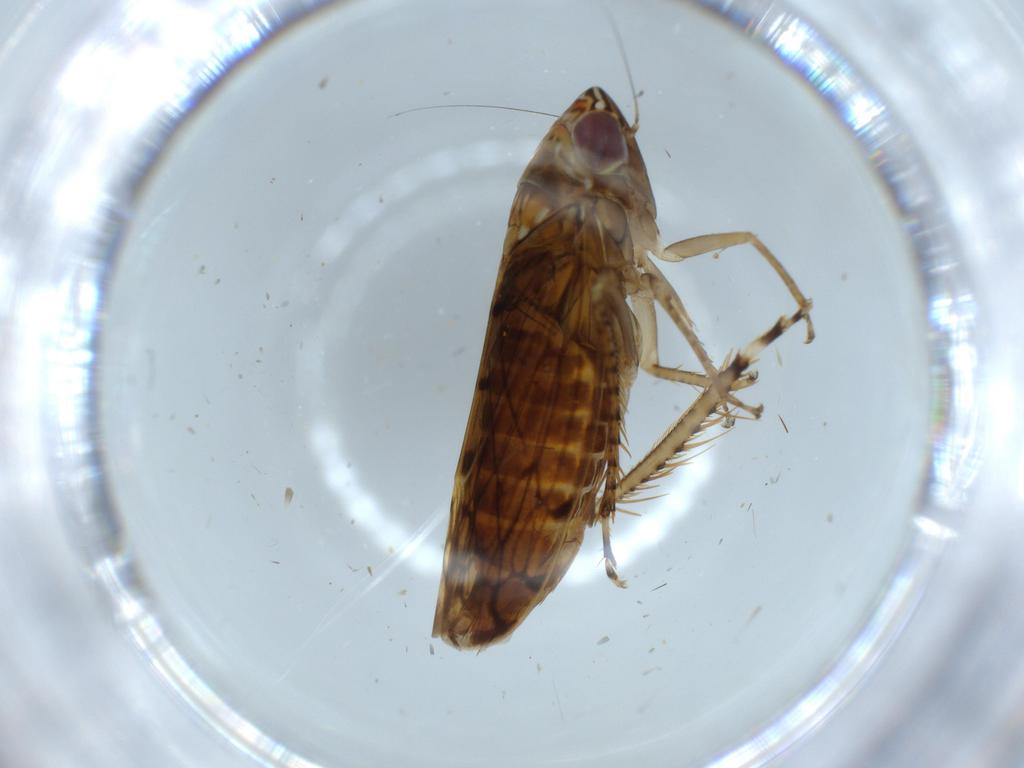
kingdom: Animalia
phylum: Arthropoda
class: Insecta
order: Hemiptera
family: Cicadellidae
